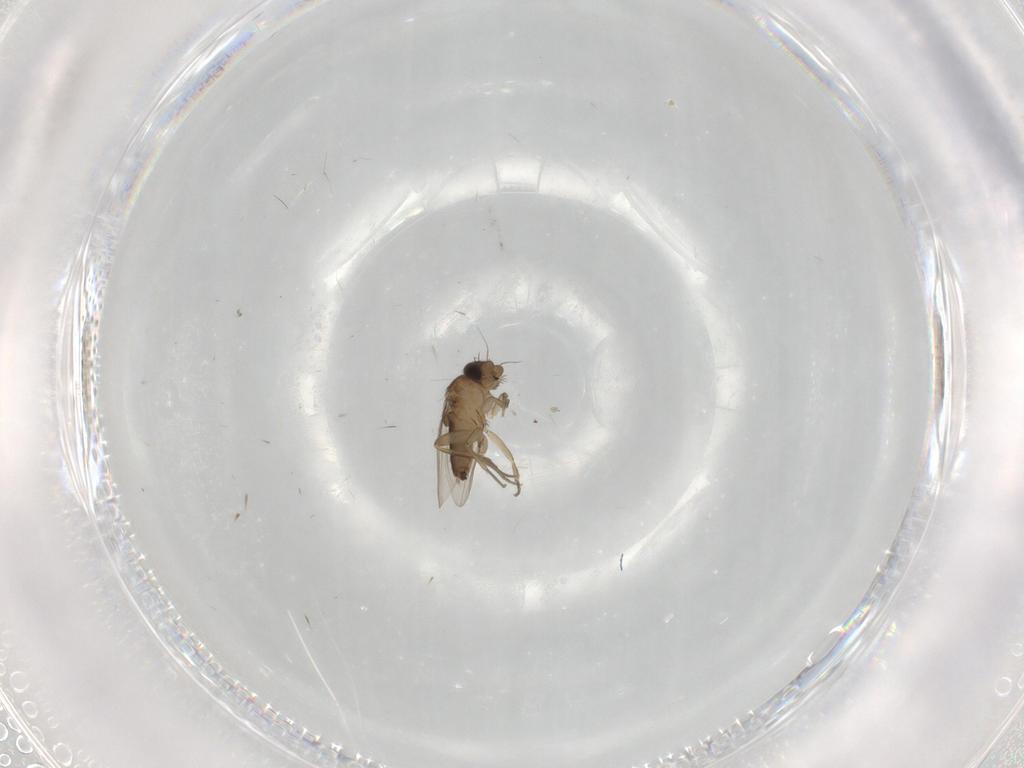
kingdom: Animalia
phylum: Arthropoda
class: Insecta
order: Diptera
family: Phoridae
